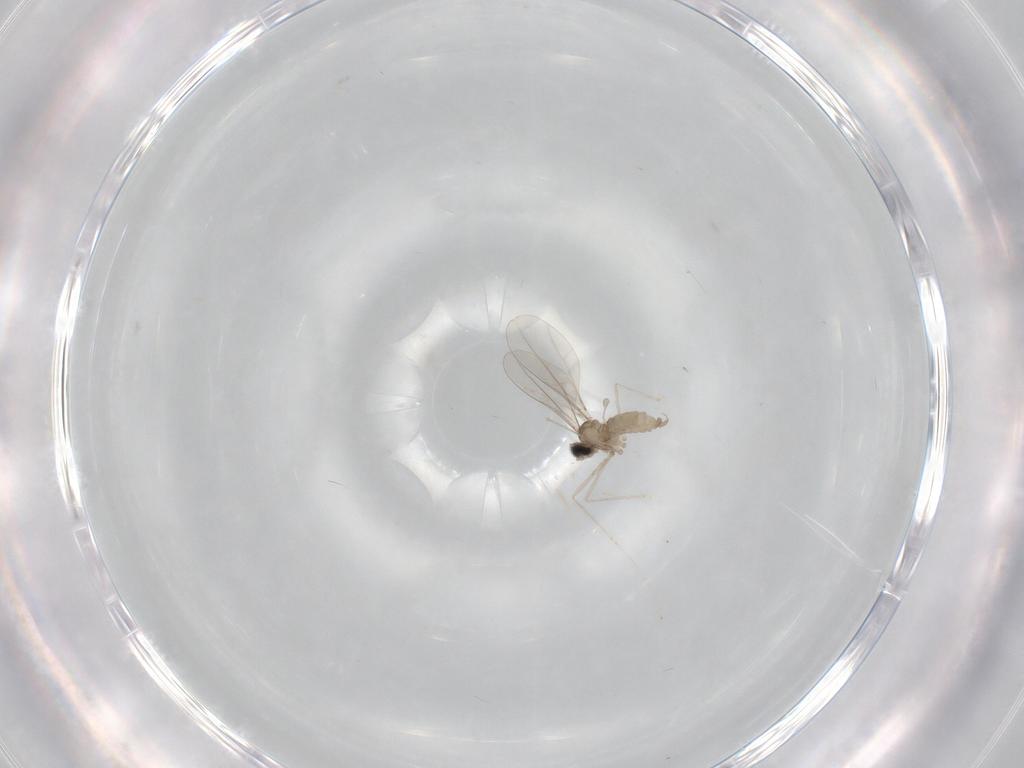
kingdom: Animalia
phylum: Arthropoda
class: Insecta
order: Diptera
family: Cecidomyiidae
